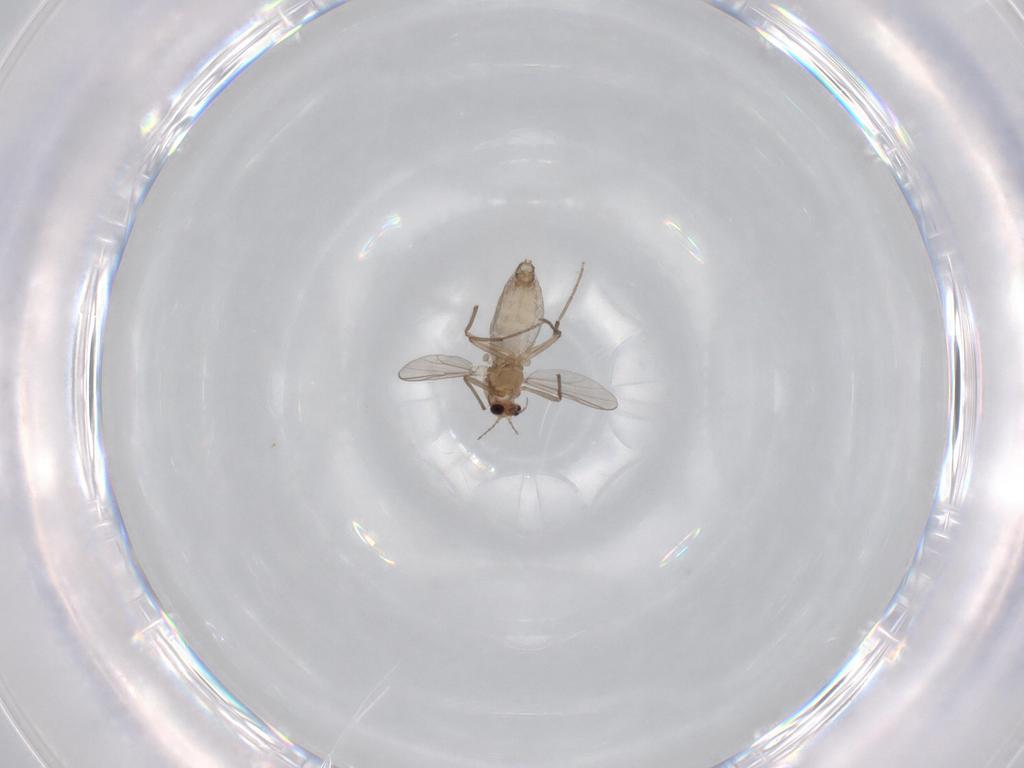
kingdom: Animalia
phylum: Arthropoda
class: Insecta
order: Diptera
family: Chironomidae
